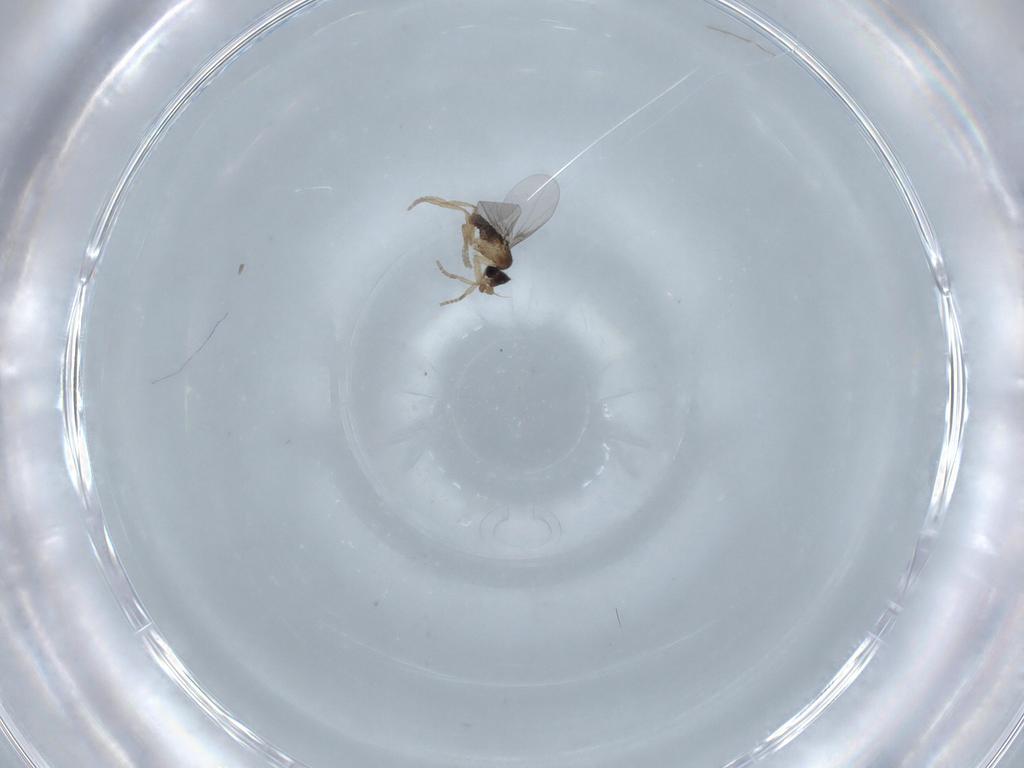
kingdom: Animalia
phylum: Arthropoda
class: Insecta
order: Diptera
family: Phoridae
